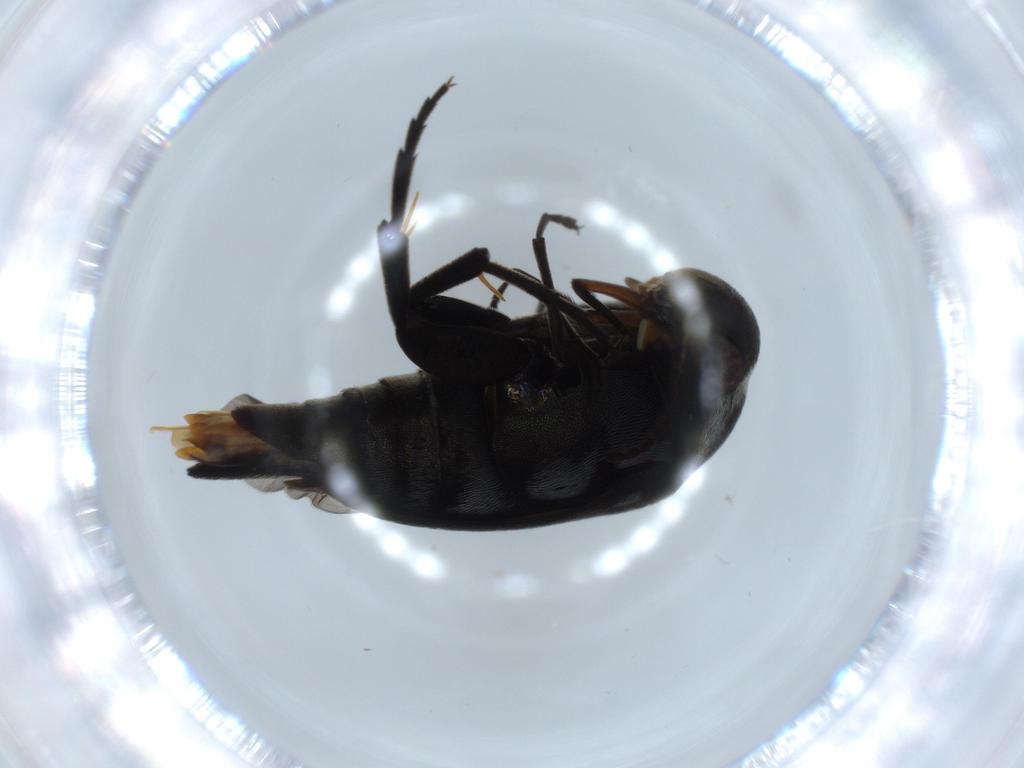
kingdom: Animalia
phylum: Arthropoda
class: Insecta
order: Coleoptera
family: Mordellidae
